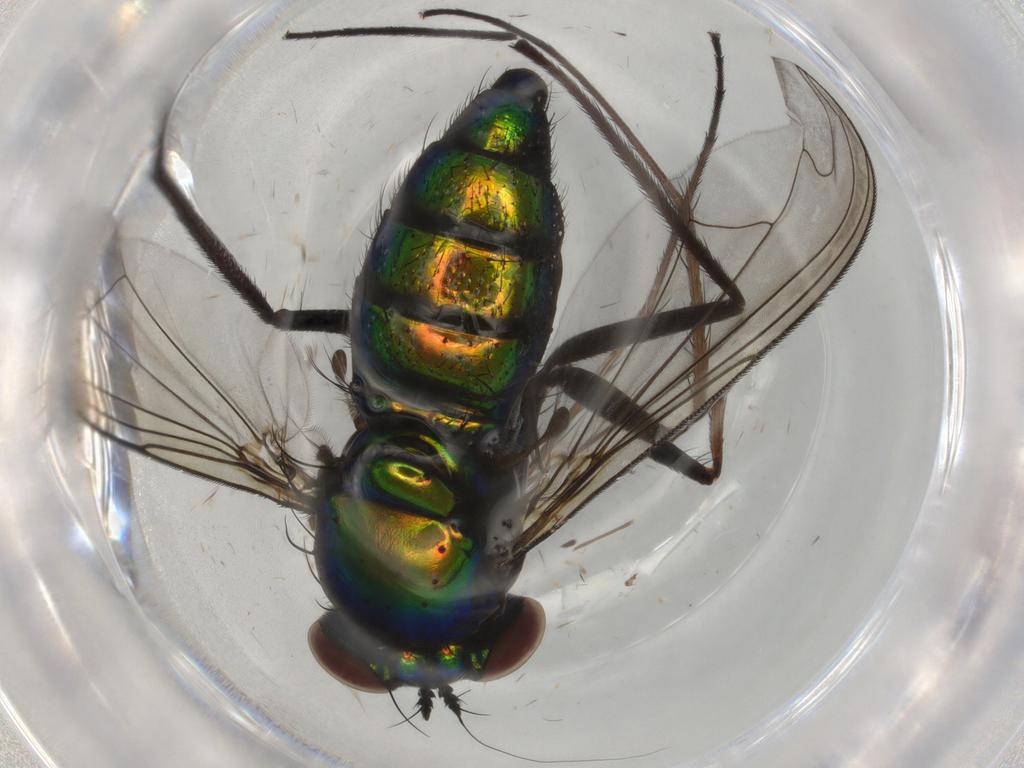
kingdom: Animalia
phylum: Arthropoda
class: Insecta
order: Diptera
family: Dolichopodidae
